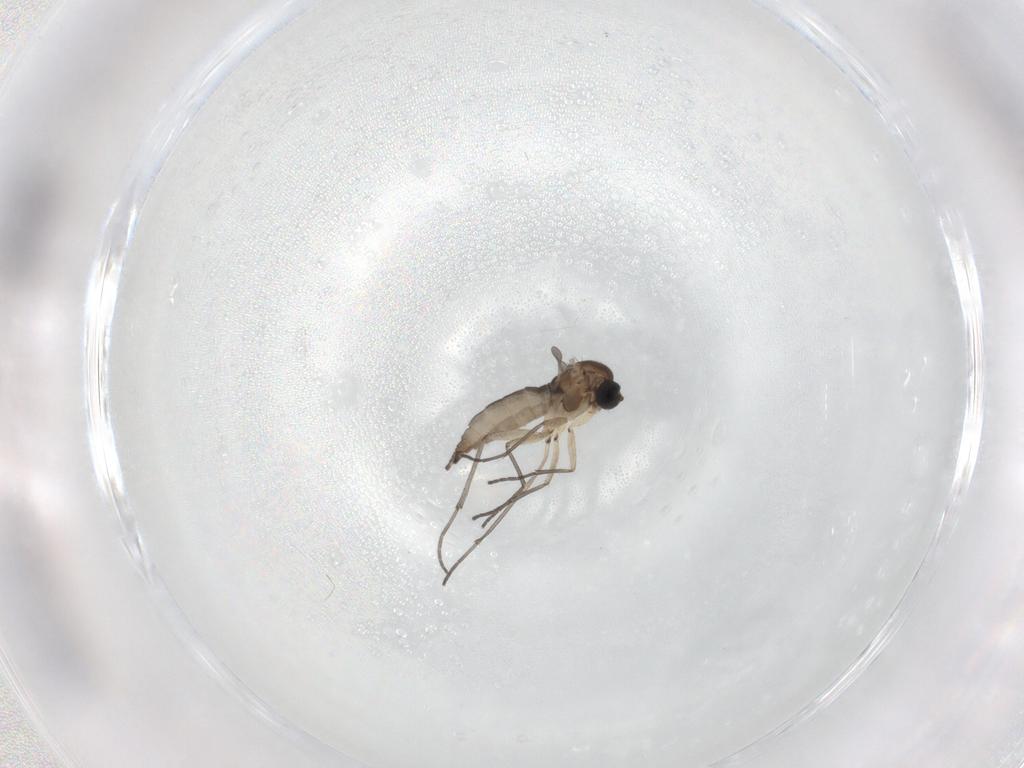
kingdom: Animalia
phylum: Arthropoda
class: Insecta
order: Diptera
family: Sciaridae
